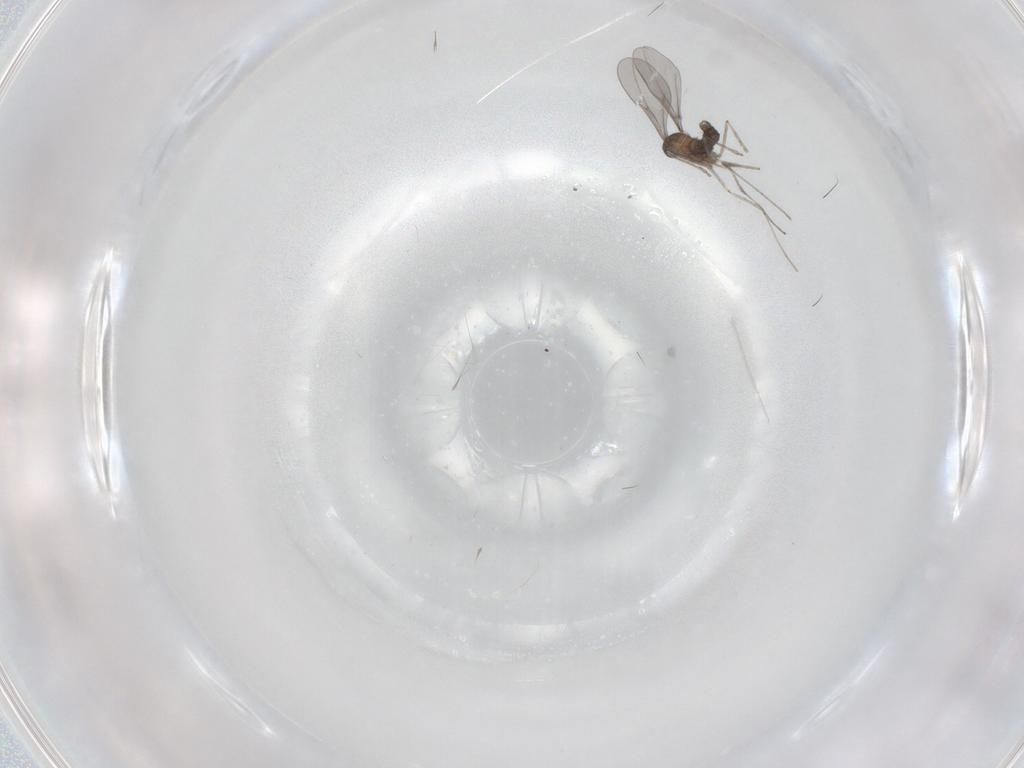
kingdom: Animalia
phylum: Arthropoda
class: Insecta
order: Diptera
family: Cecidomyiidae
